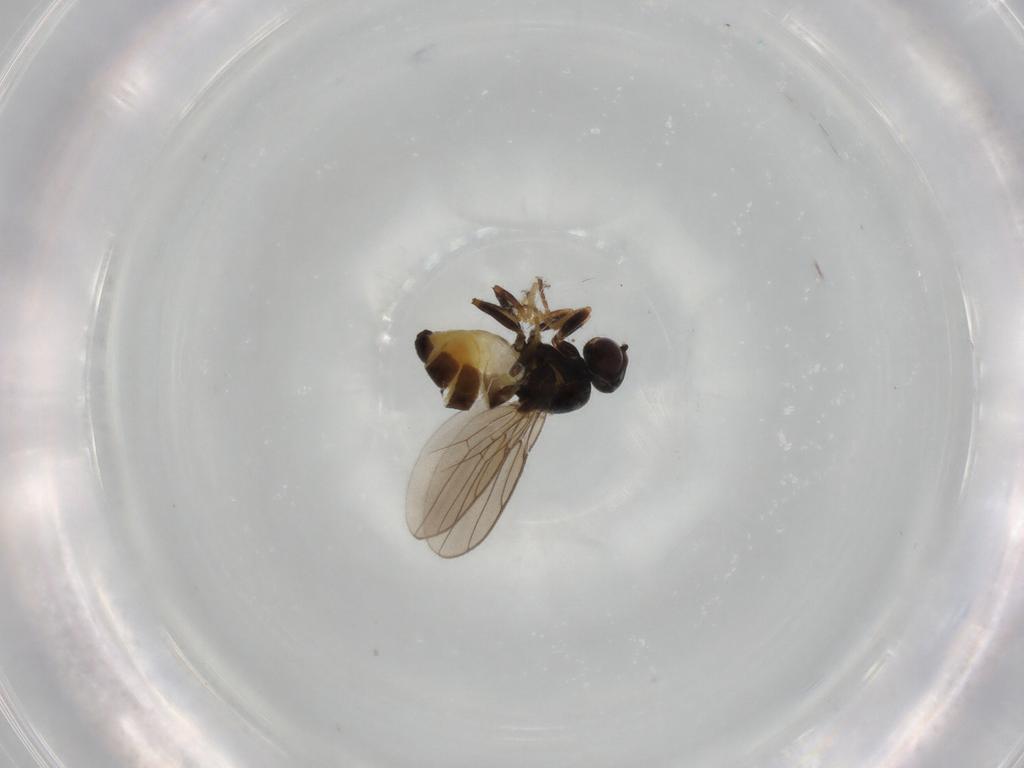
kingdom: Animalia
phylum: Arthropoda
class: Insecta
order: Diptera
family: Chloropidae
